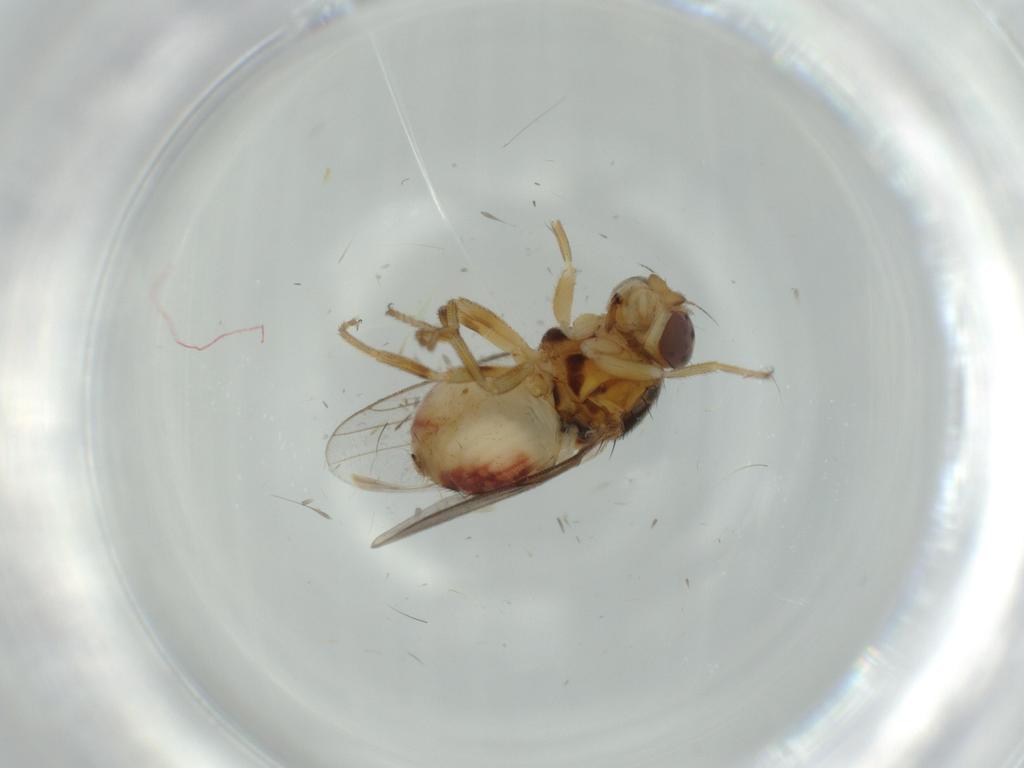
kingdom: Animalia
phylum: Arthropoda
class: Insecta
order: Diptera
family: Chloropidae
